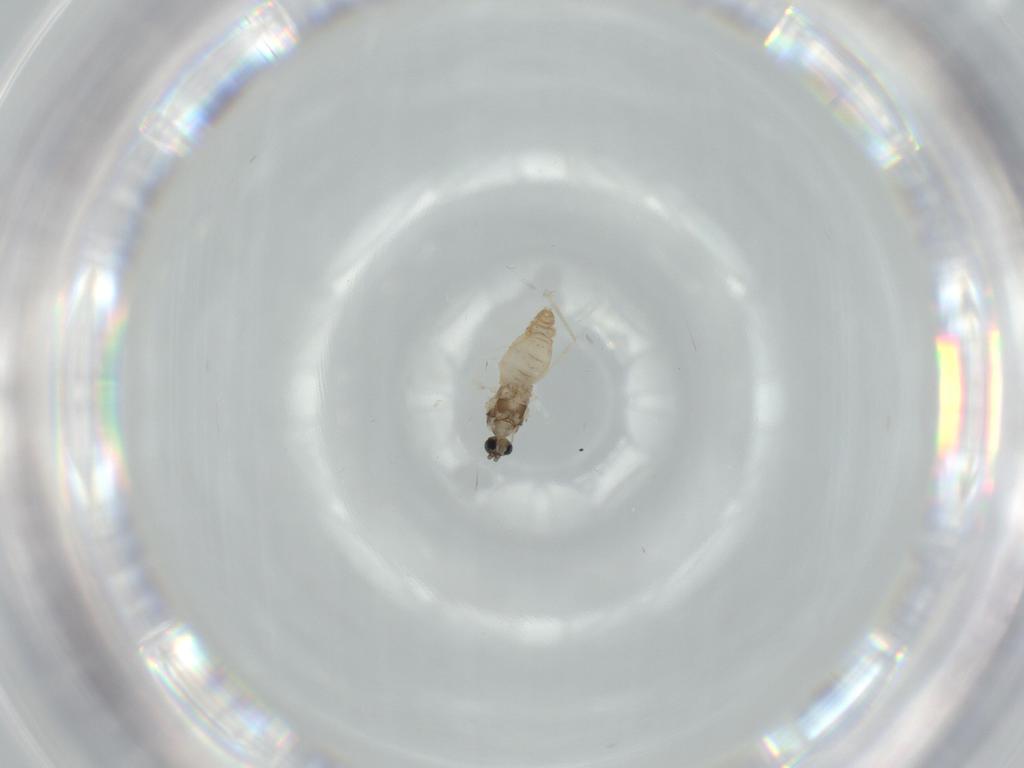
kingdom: Animalia
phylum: Arthropoda
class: Insecta
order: Diptera
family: Cecidomyiidae
